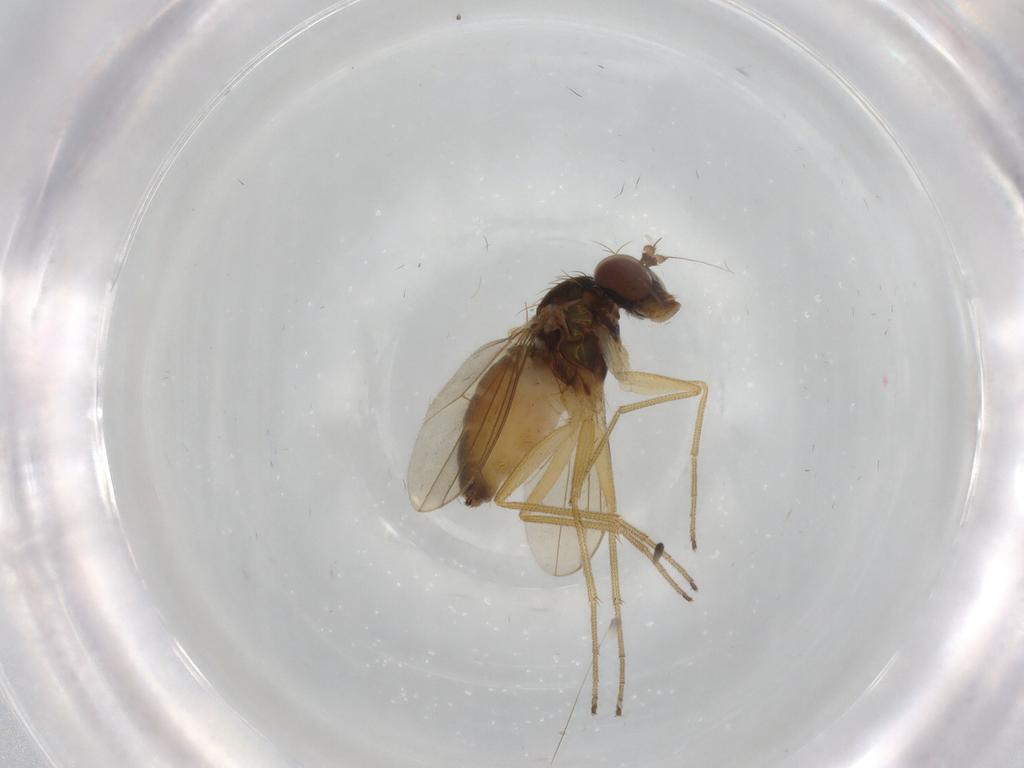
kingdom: Animalia
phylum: Arthropoda
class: Insecta
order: Diptera
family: Dolichopodidae
